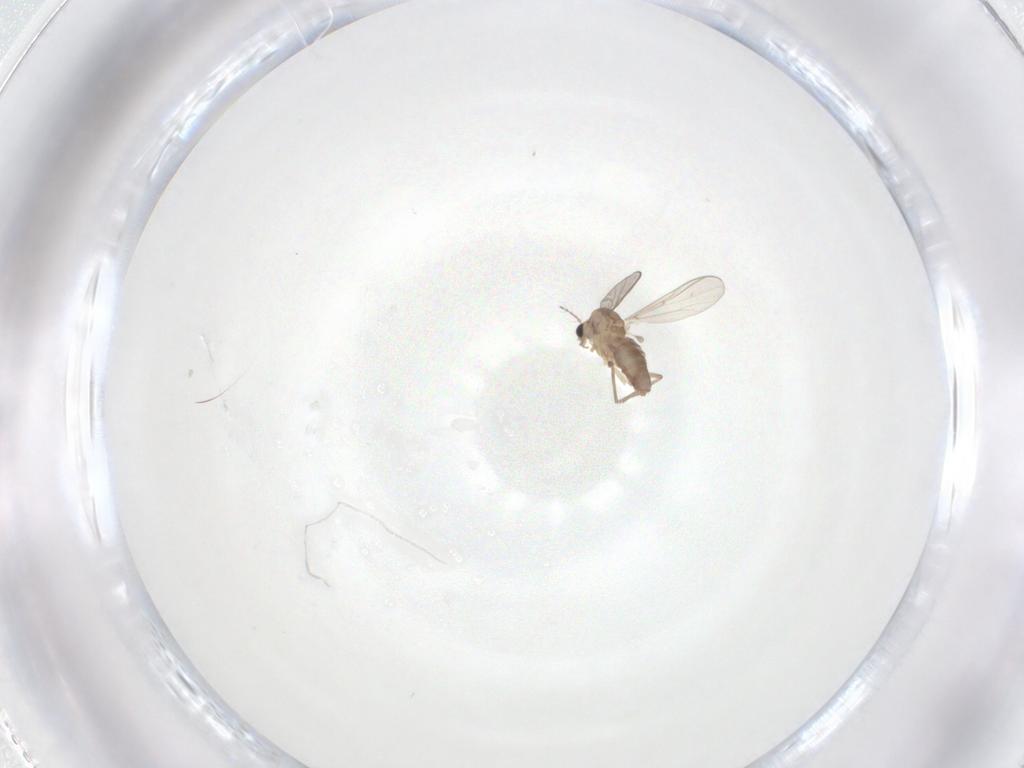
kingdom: Animalia
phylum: Arthropoda
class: Insecta
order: Diptera
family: Chironomidae
